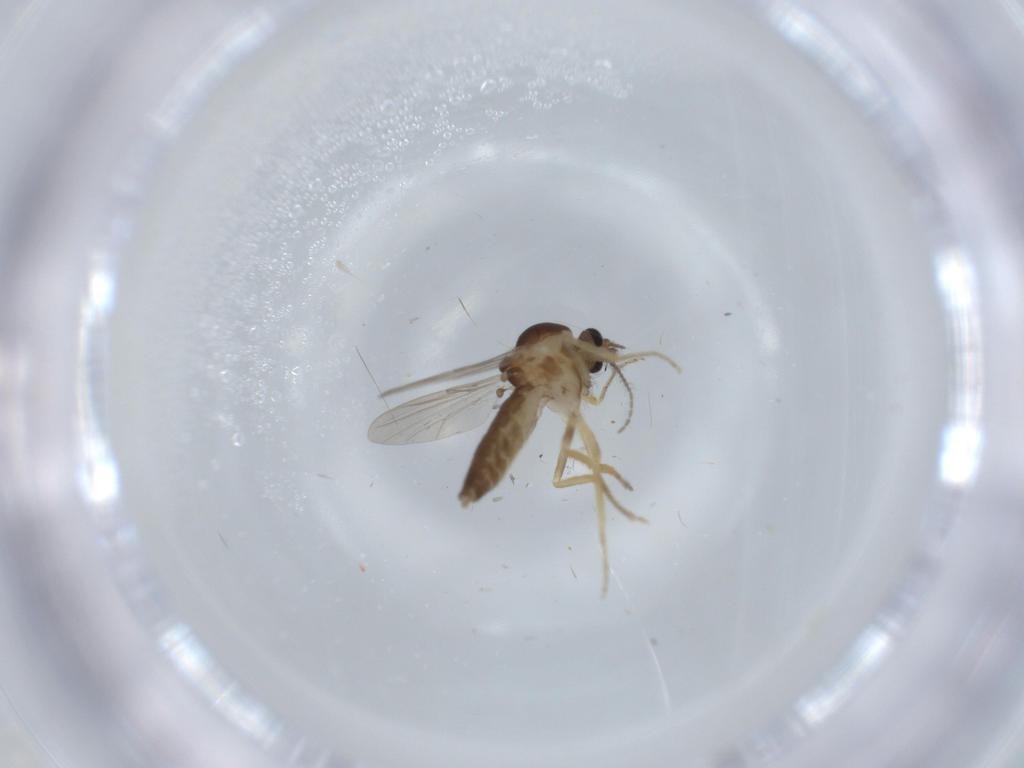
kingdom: Animalia
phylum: Arthropoda
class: Insecta
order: Diptera
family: Ceratopogonidae
